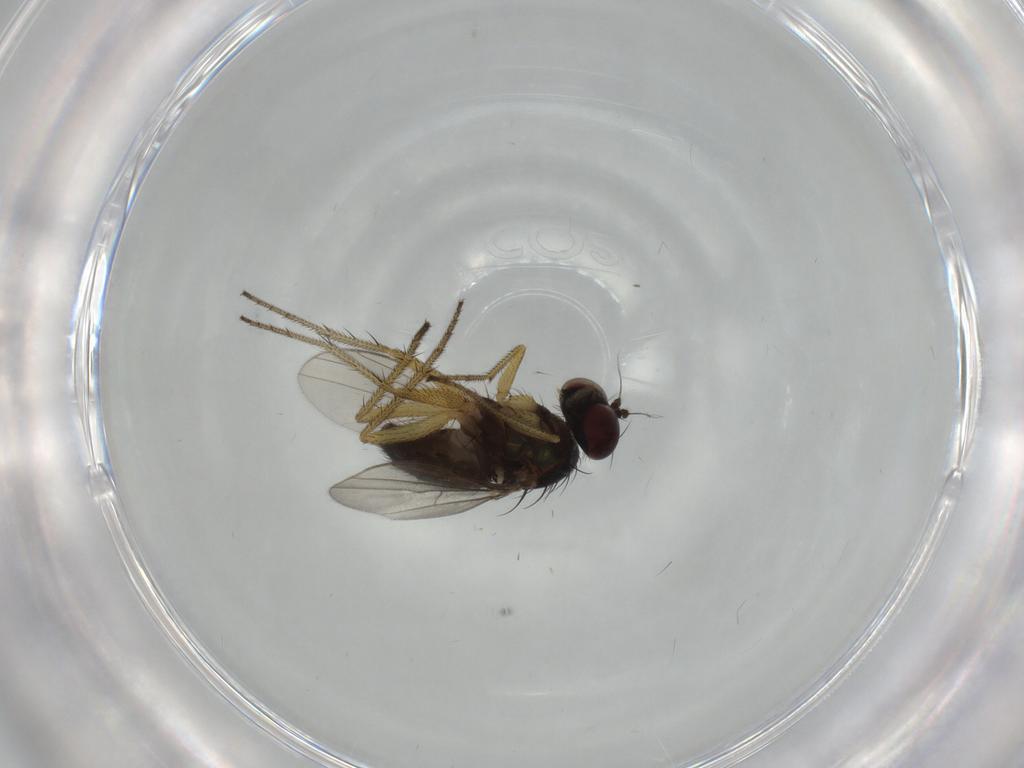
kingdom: Animalia
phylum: Arthropoda
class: Insecta
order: Diptera
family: Dolichopodidae
